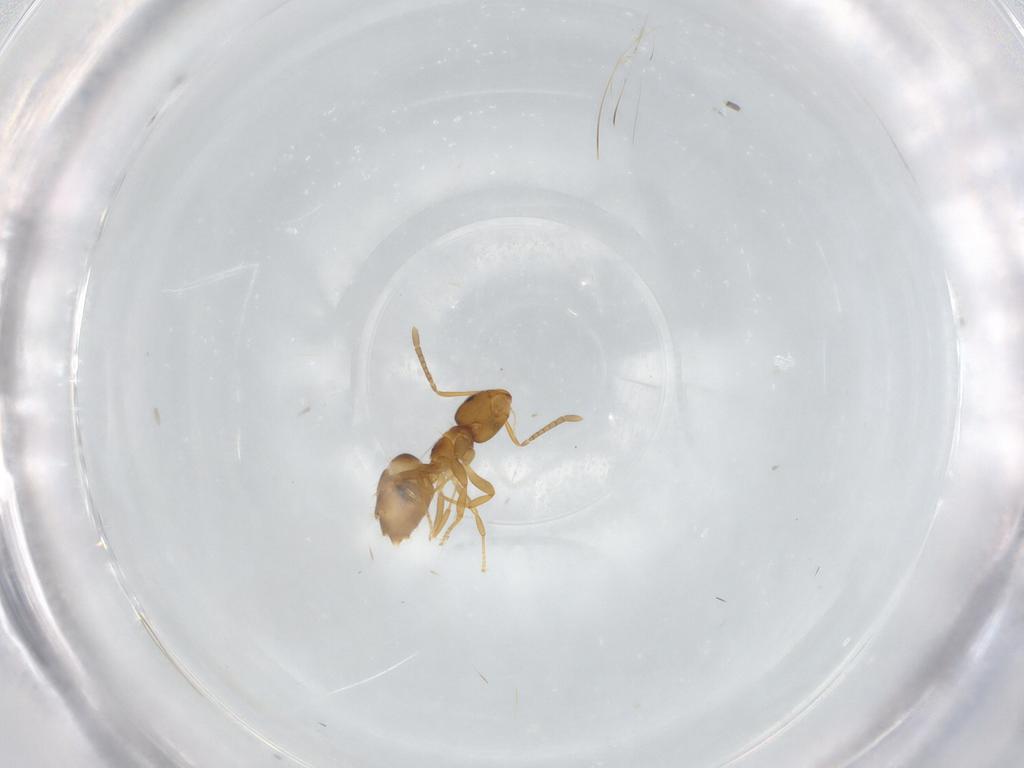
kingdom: Animalia
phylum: Arthropoda
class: Insecta
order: Hymenoptera
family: Formicidae
